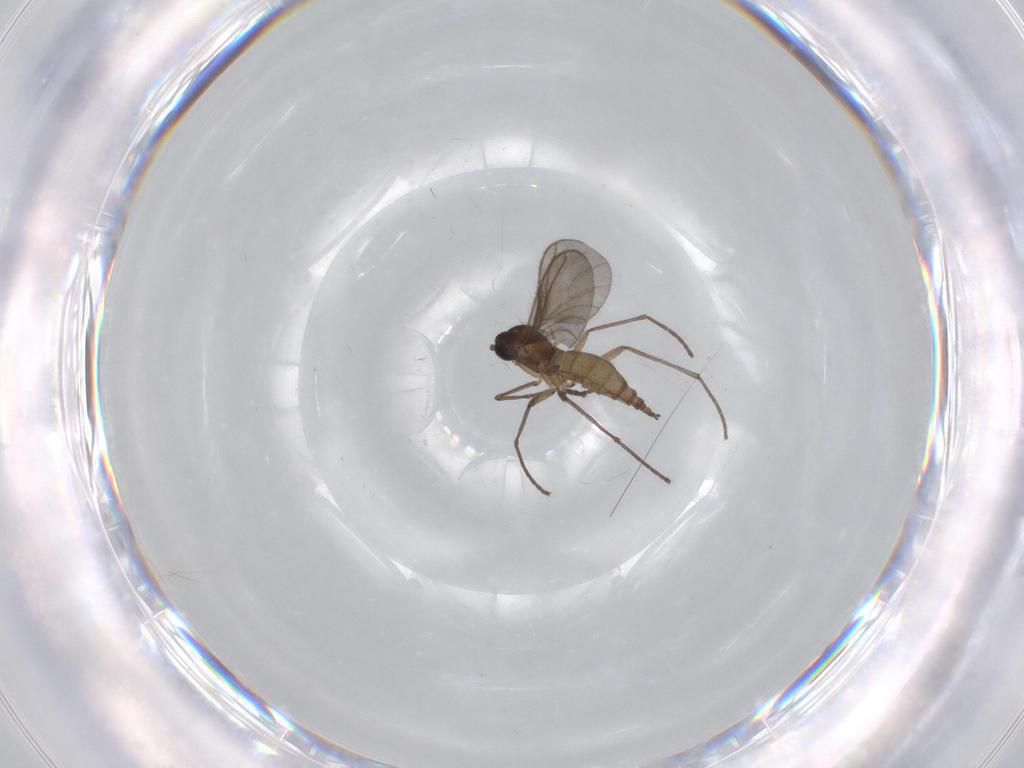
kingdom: Animalia
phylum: Arthropoda
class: Insecta
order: Diptera
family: Sciaridae
